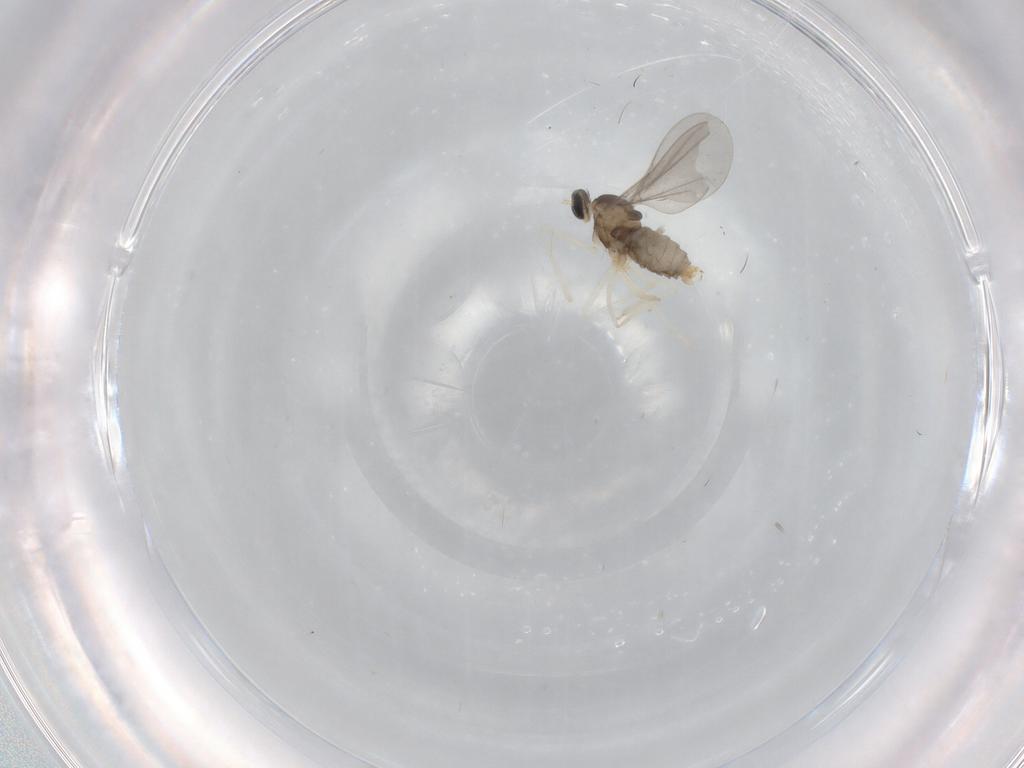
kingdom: Animalia
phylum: Arthropoda
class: Insecta
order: Diptera
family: Cecidomyiidae
